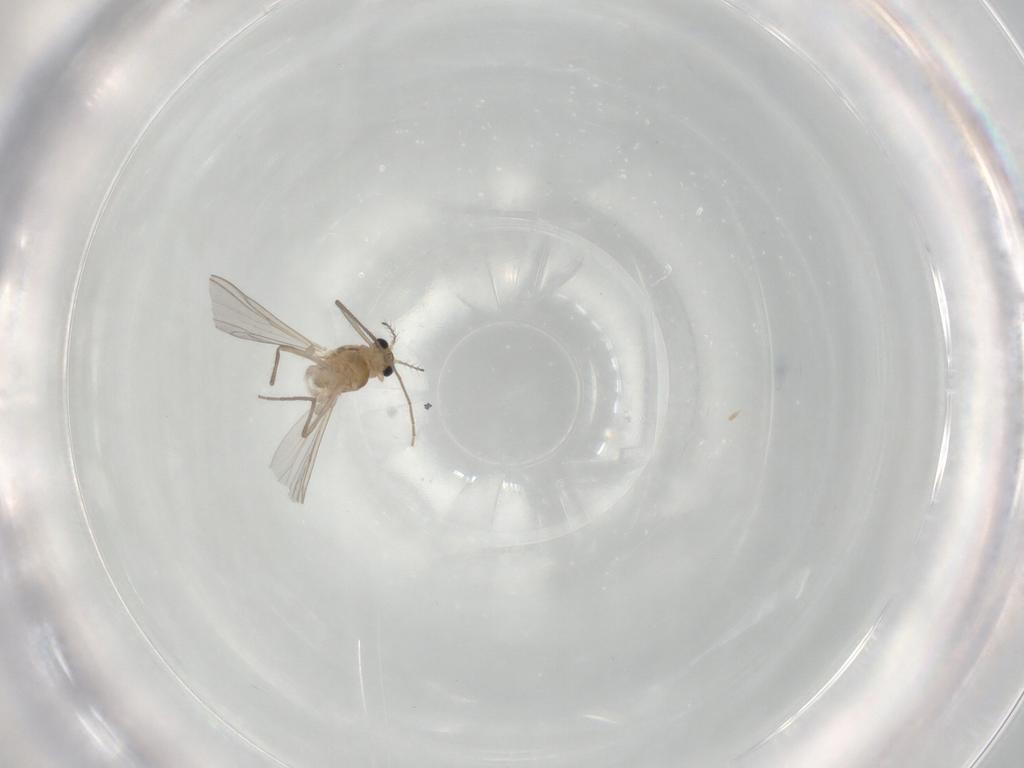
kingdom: Animalia
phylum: Arthropoda
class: Insecta
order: Diptera
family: Chironomidae
